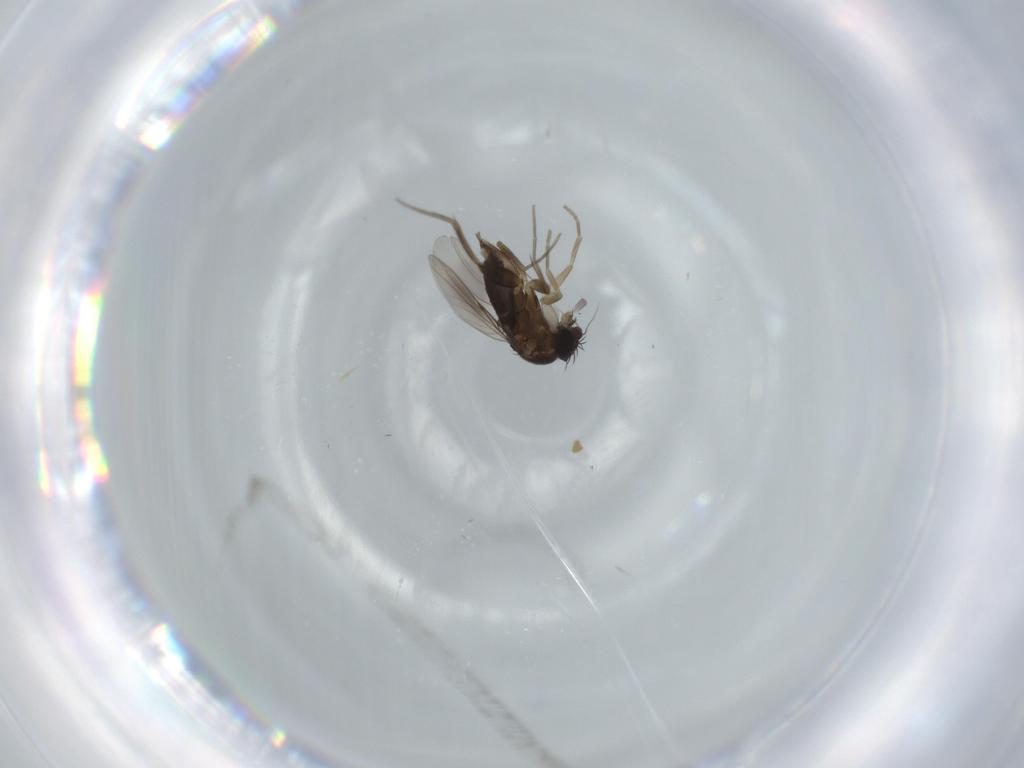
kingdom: Animalia
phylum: Arthropoda
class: Insecta
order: Diptera
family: Phoridae
